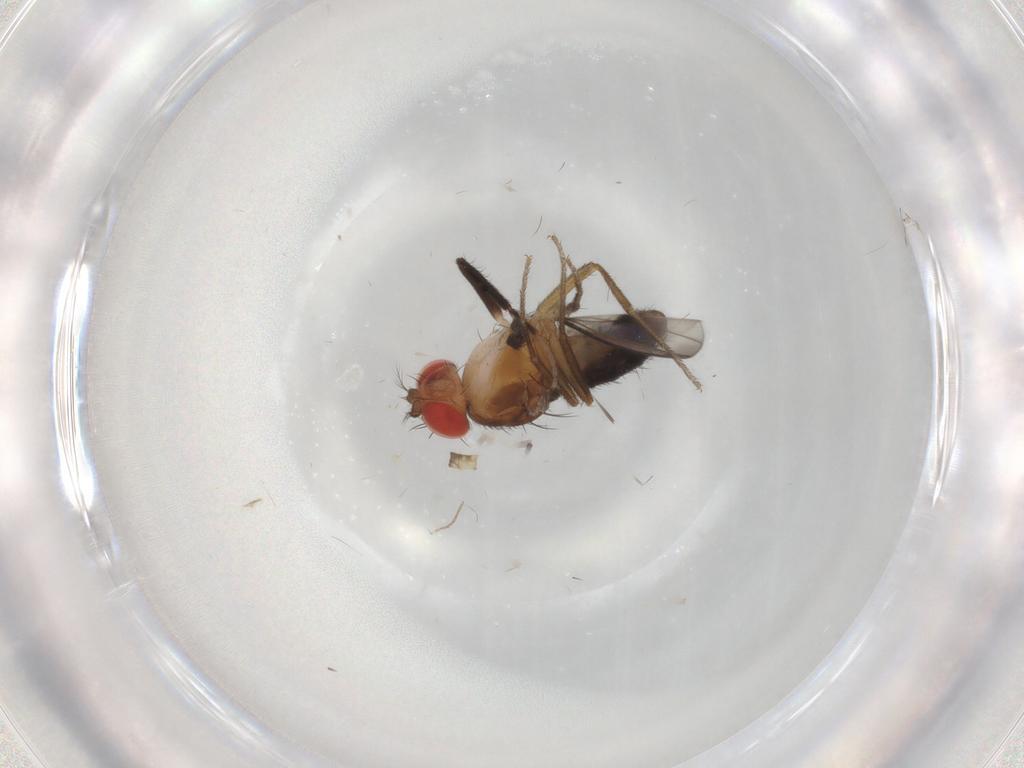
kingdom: Animalia
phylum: Arthropoda
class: Insecta
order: Diptera
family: Drosophilidae
